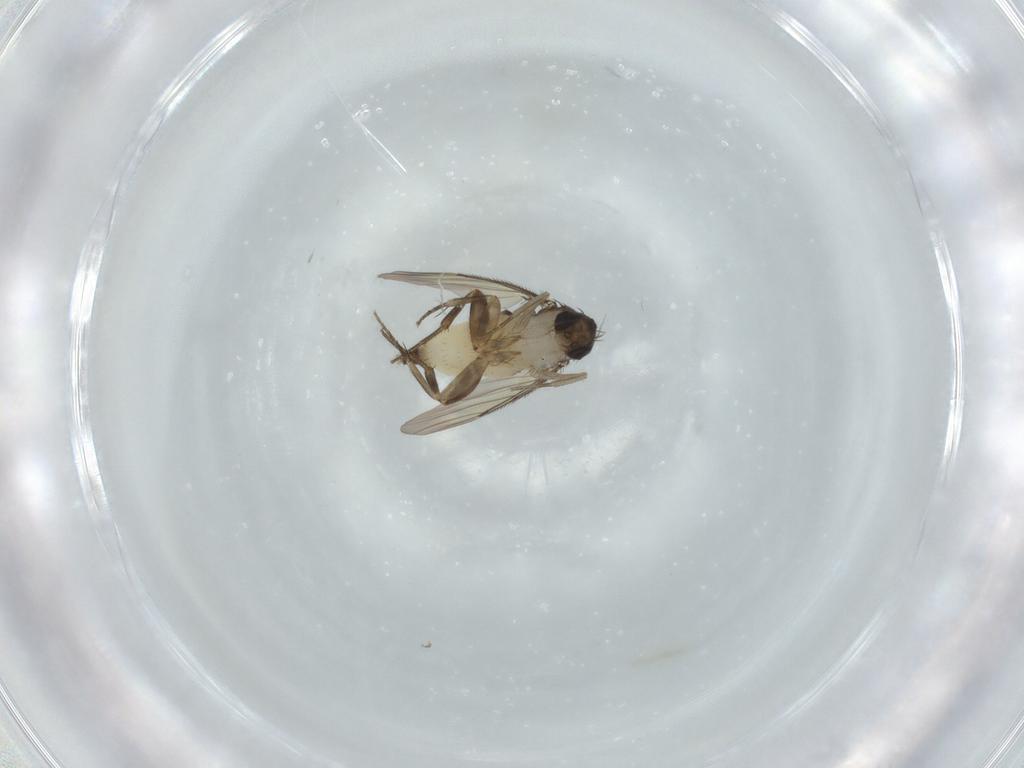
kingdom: Animalia
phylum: Arthropoda
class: Insecta
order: Diptera
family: Phoridae
